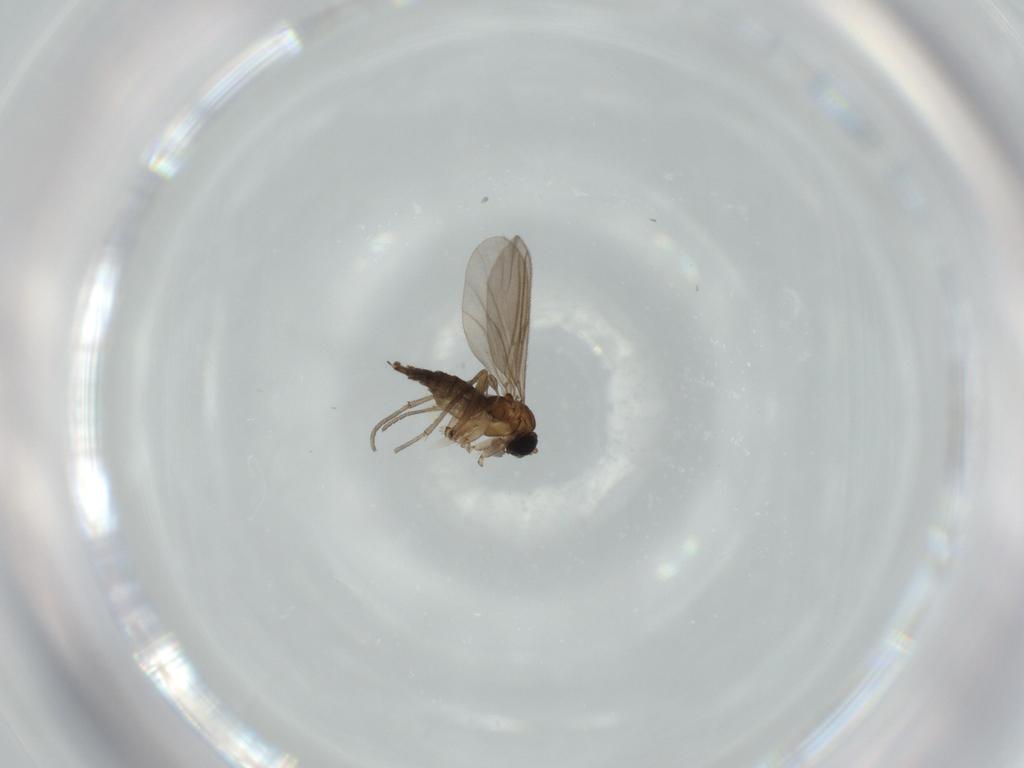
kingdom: Animalia
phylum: Arthropoda
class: Insecta
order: Diptera
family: Sciaridae
